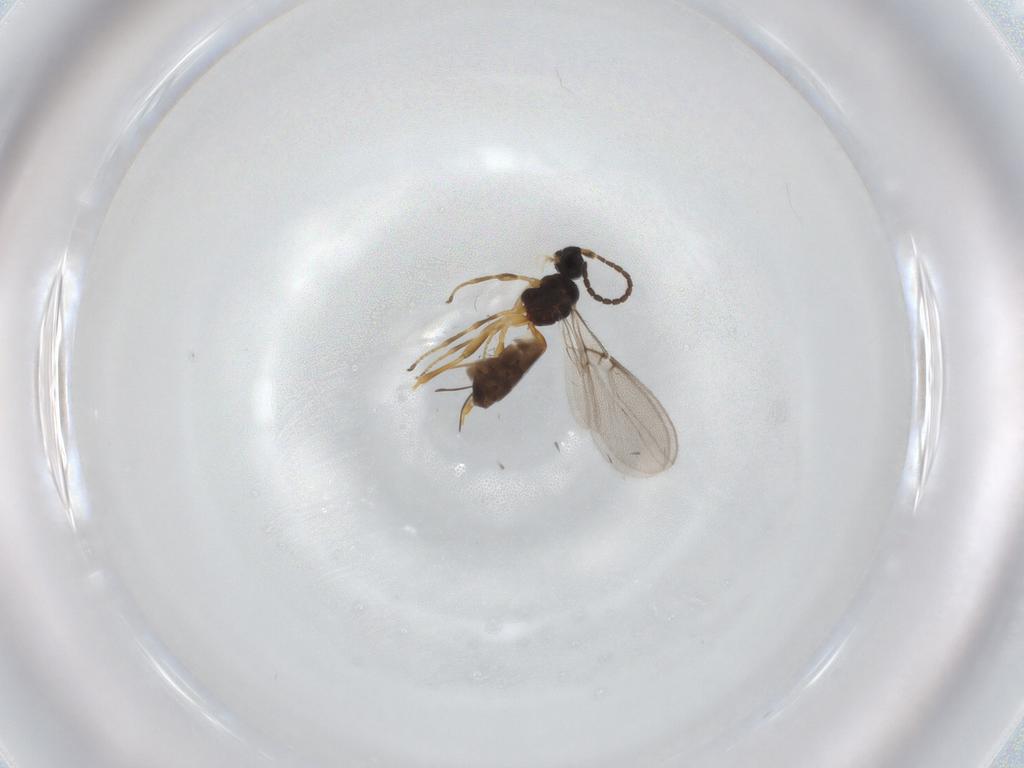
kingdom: Animalia
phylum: Arthropoda
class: Insecta
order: Hymenoptera
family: Braconidae
